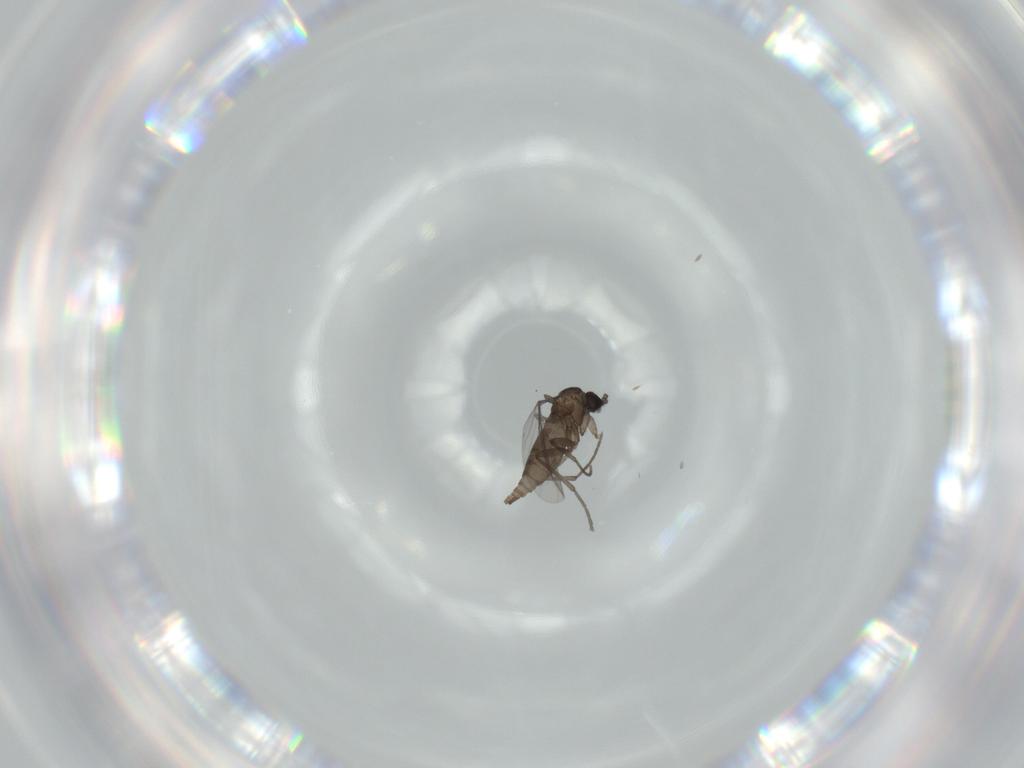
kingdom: Animalia
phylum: Arthropoda
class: Insecta
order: Diptera
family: Sciaridae
